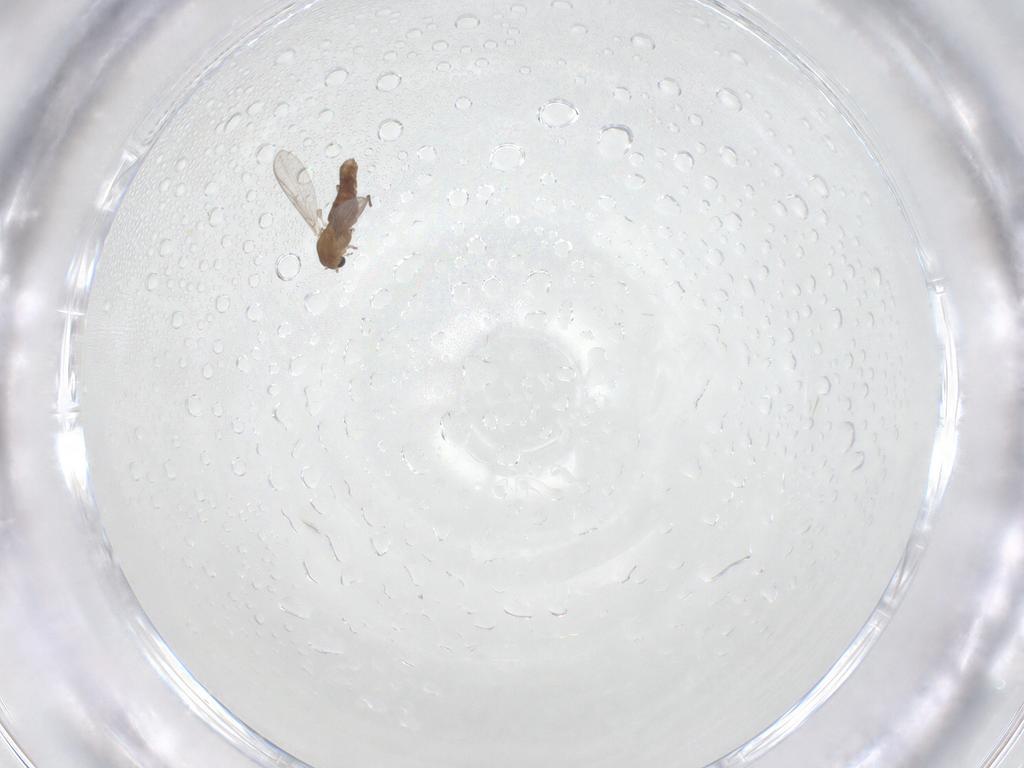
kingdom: Animalia
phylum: Arthropoda
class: Insecta
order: Diptera
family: Chironomidae
